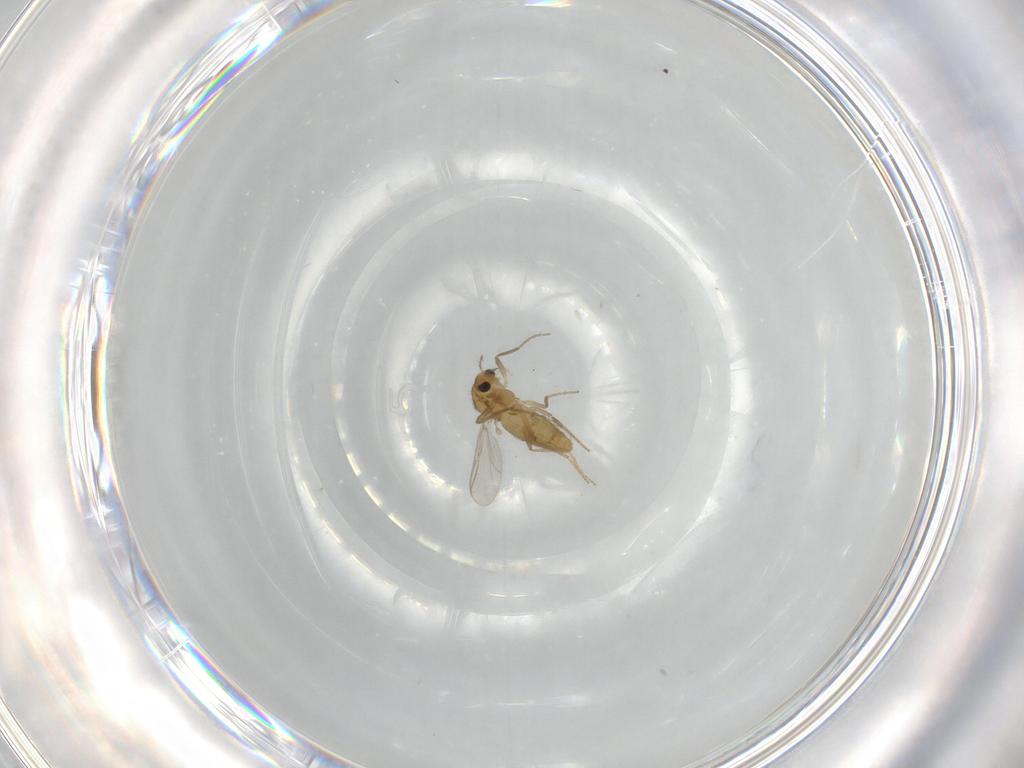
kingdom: Animalia
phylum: Arthropoda
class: Insecta
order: Diptera
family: Chironomidae
